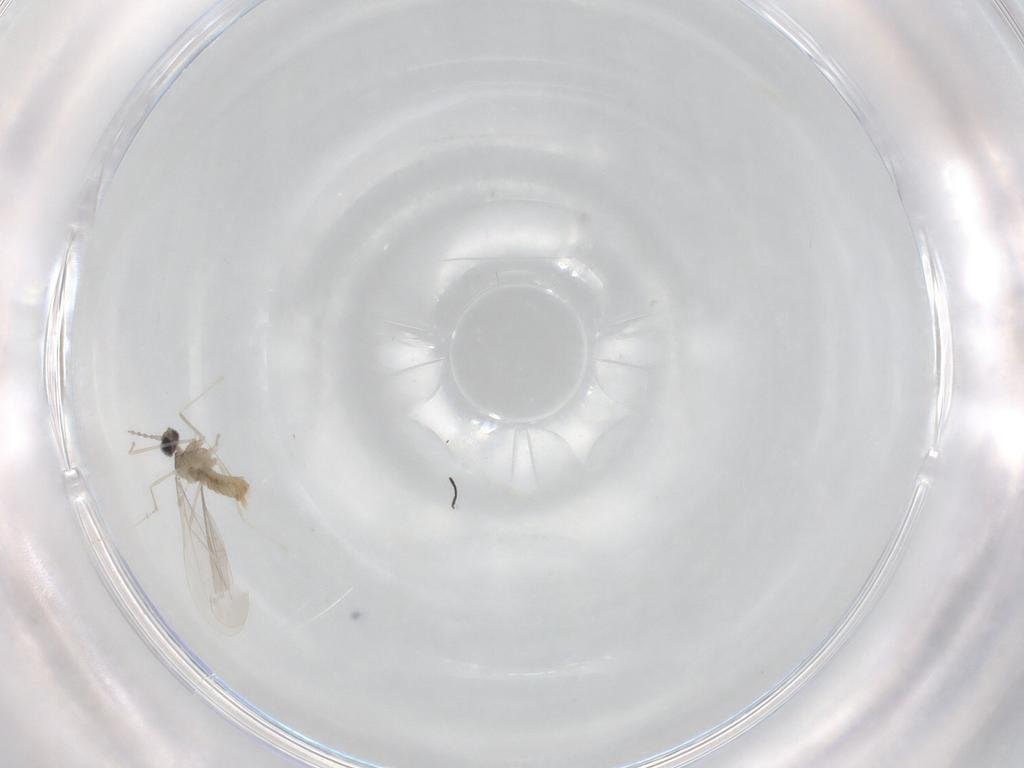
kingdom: Animalia
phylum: Arthropoda
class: Insecta
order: Diptera
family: Cecidomyiidae
